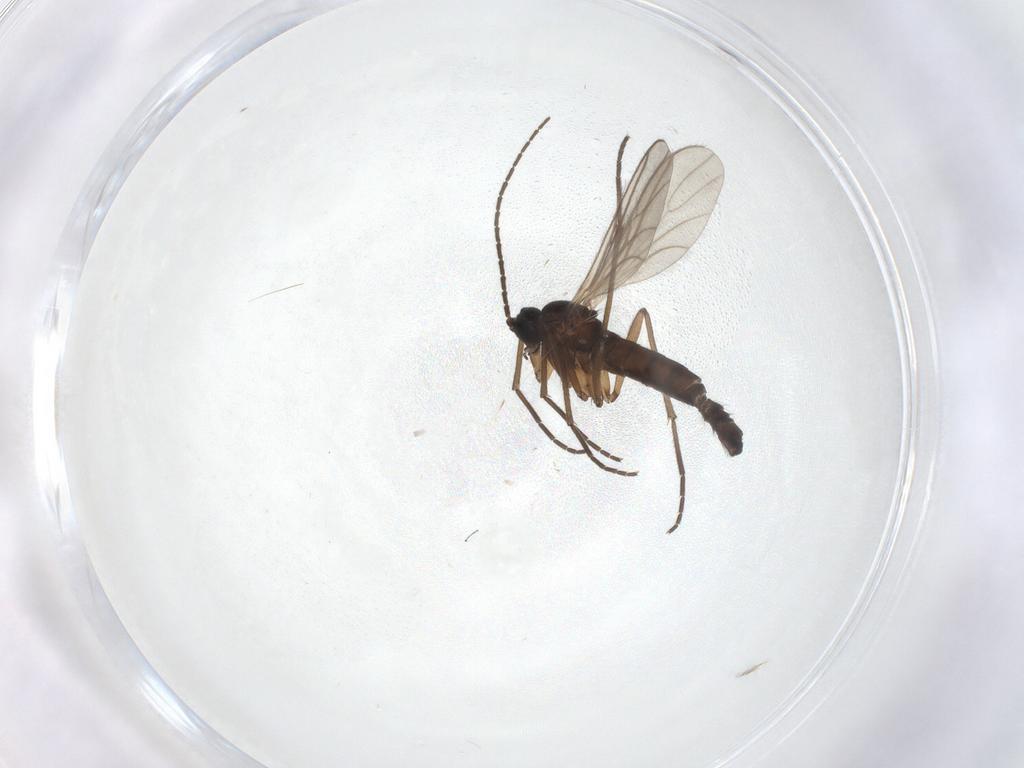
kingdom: Animalia
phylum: Arthropoda
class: Insecta
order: Diptera
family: Sciaridae
